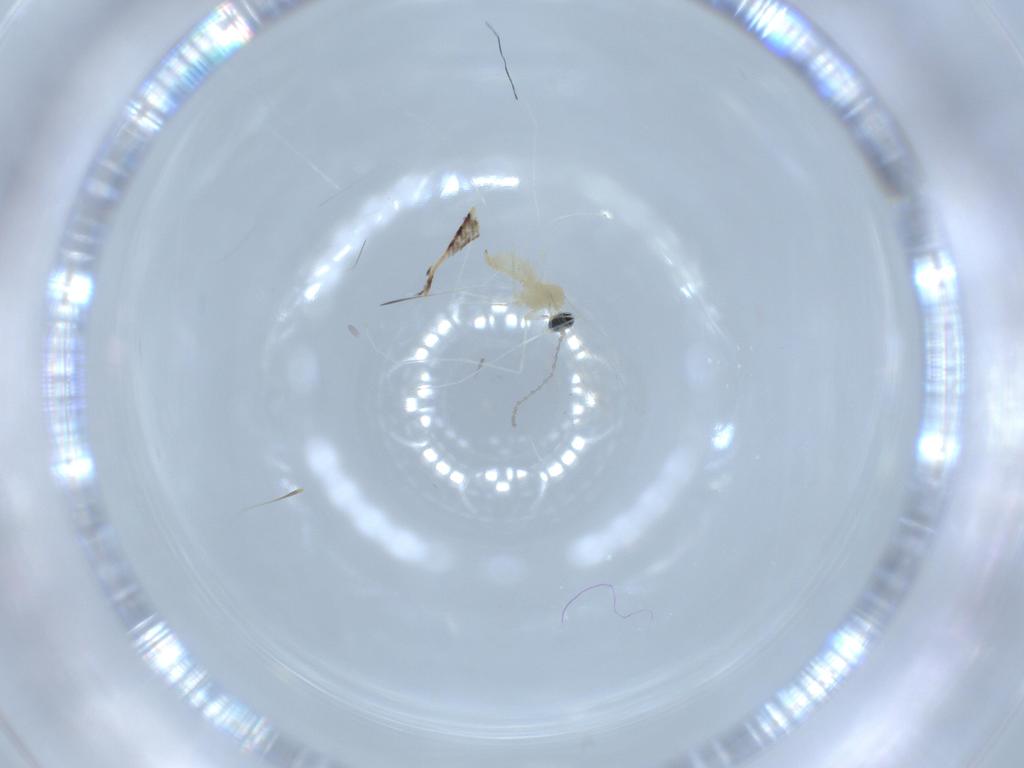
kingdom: Animalia
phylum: Arthropoda
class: Insecta
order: Diptera
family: Cecidomyiidae
